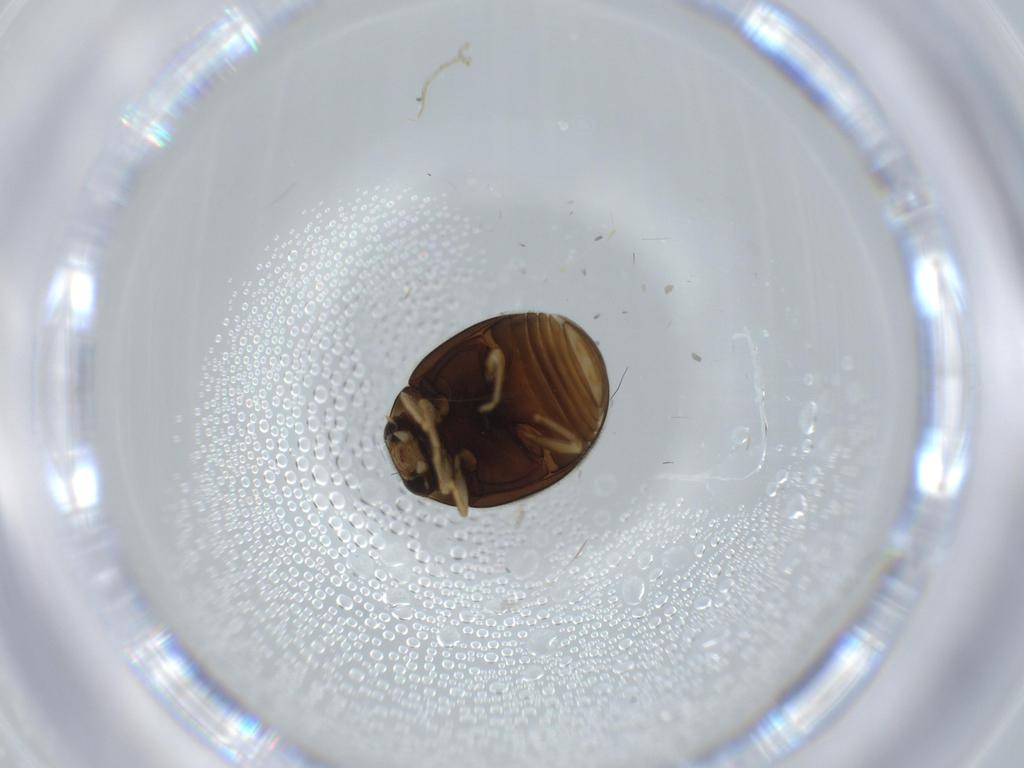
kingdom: Animalia
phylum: Arthropoda
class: Insecta
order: Coleoptera
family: Coccinellidae
